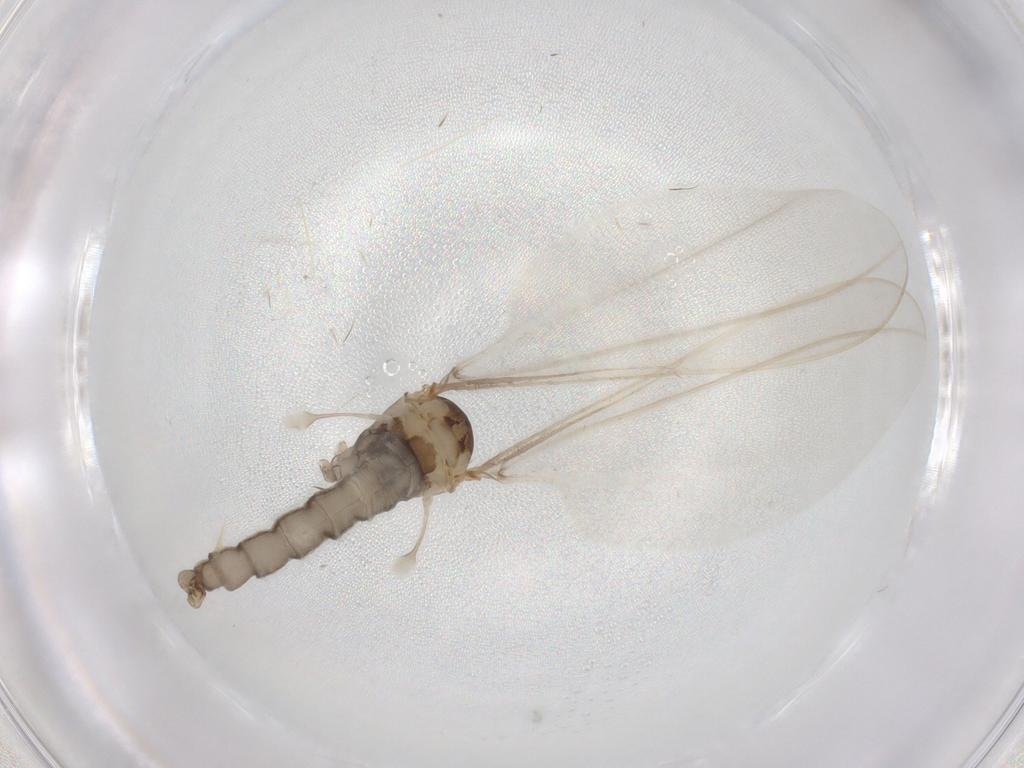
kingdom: Animalia
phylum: Arthropoda
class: Insecta
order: Diptera
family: Cecidomyiidae
